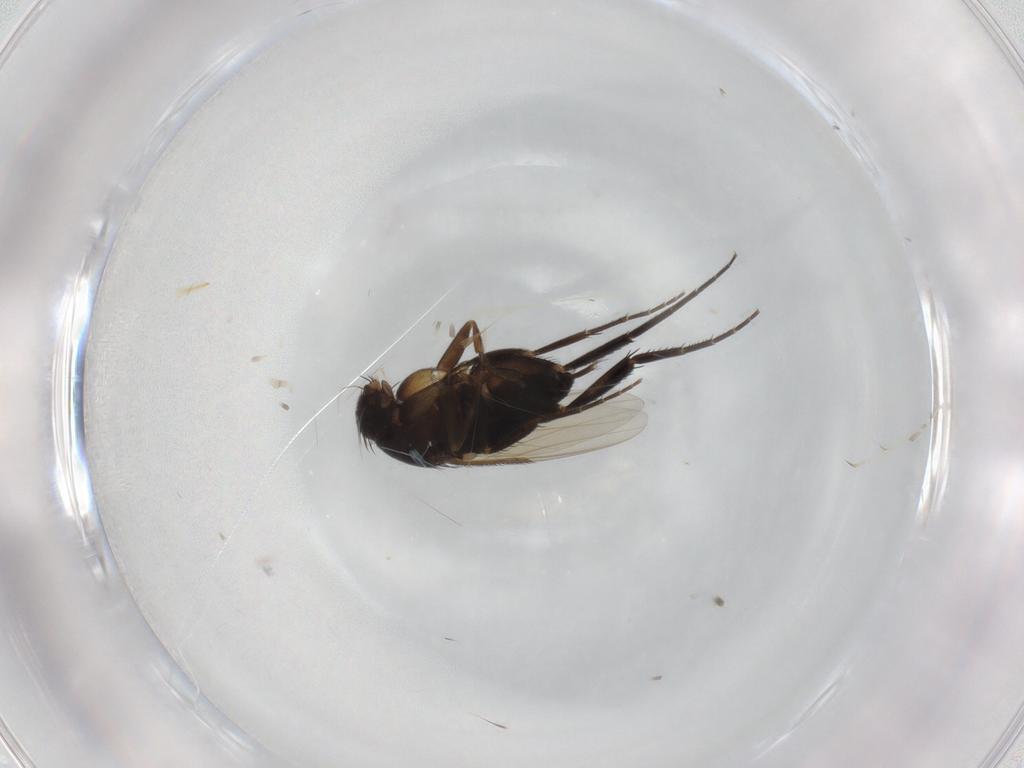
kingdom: Animalia
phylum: Arthropoda
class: Insecta
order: Diptera
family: Phoridae
